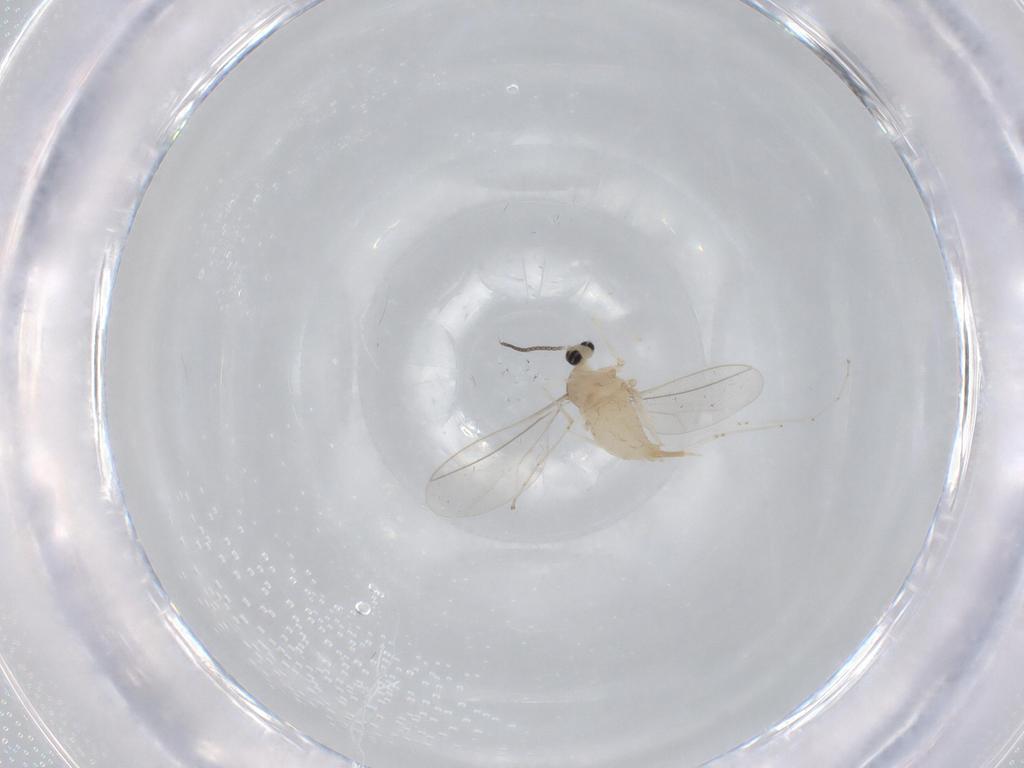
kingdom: Animalia
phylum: Arthropoda
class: Insecta
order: Diptera
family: Cecidomyiidae
